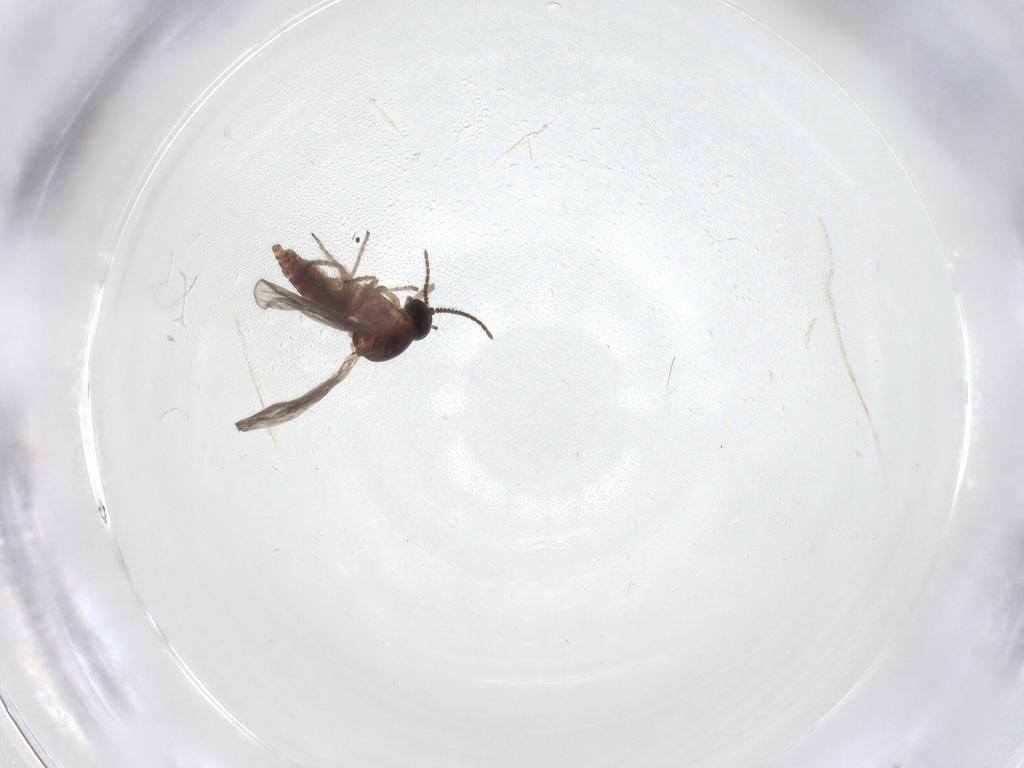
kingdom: Animalia
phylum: Arthropoda
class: Insecta
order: Diptera
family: Ceratopogonidae
